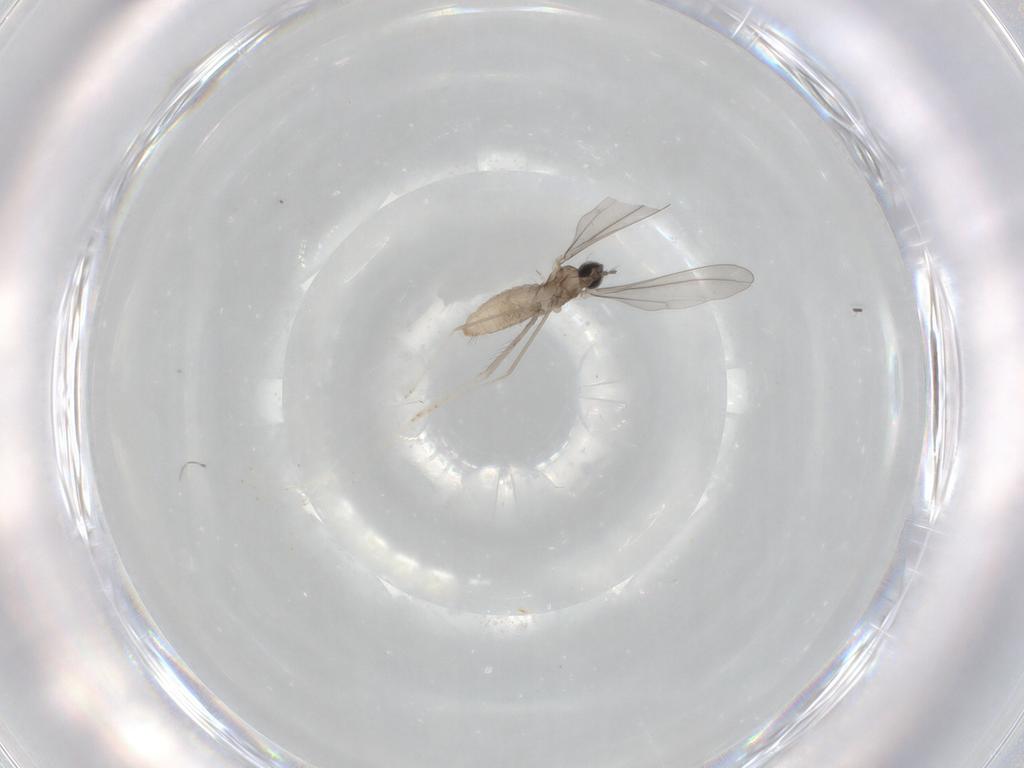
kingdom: Animalia
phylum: Arthropoda
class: Insecta
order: Diptera
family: Cecidomyiidae
